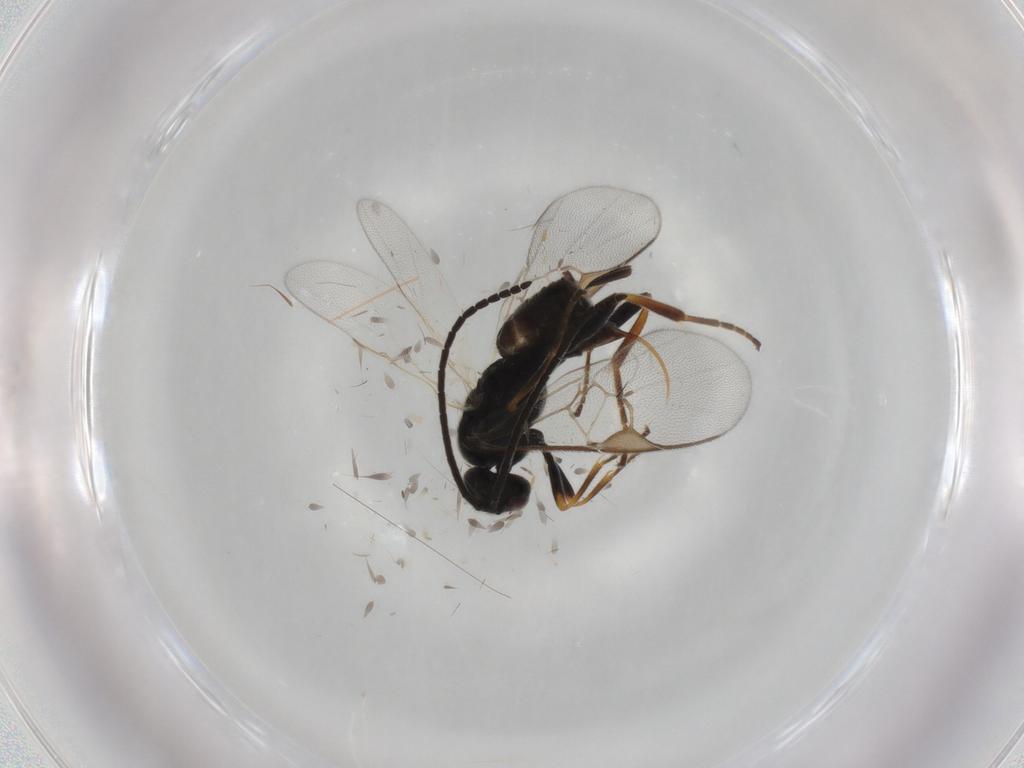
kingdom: Animalia
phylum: Arthropoda
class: Insecta
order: Hymenoptera
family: Braconidae
